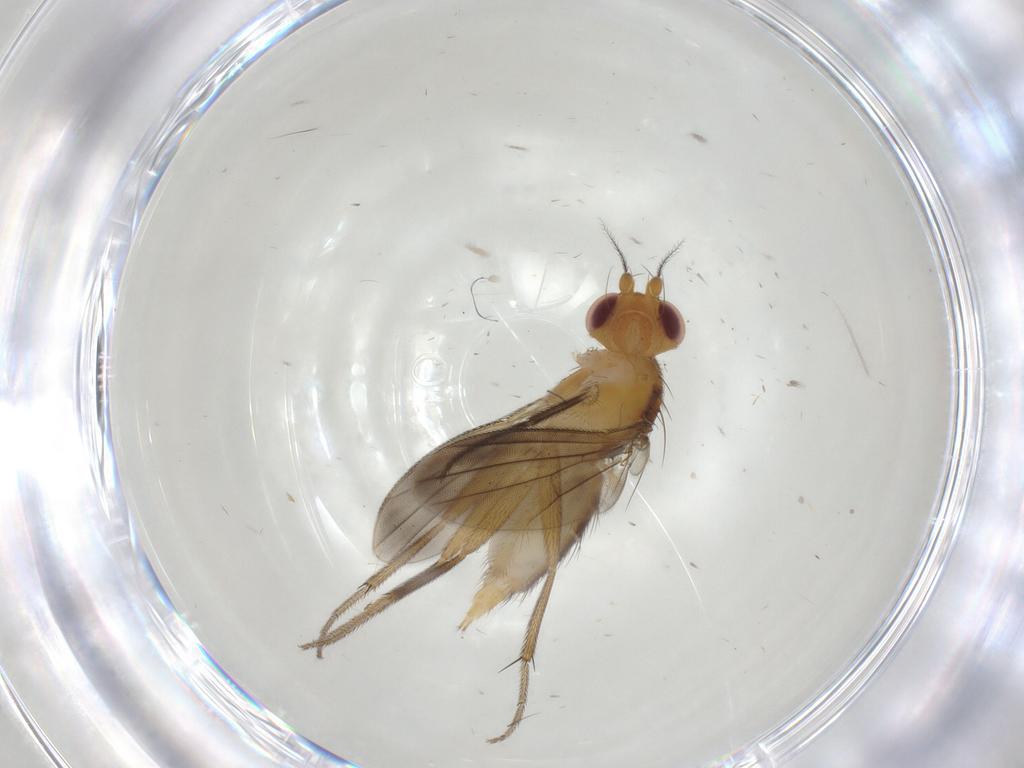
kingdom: Animalia
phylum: Arthropoda
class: Insecta
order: Diptera
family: Clusiidae
